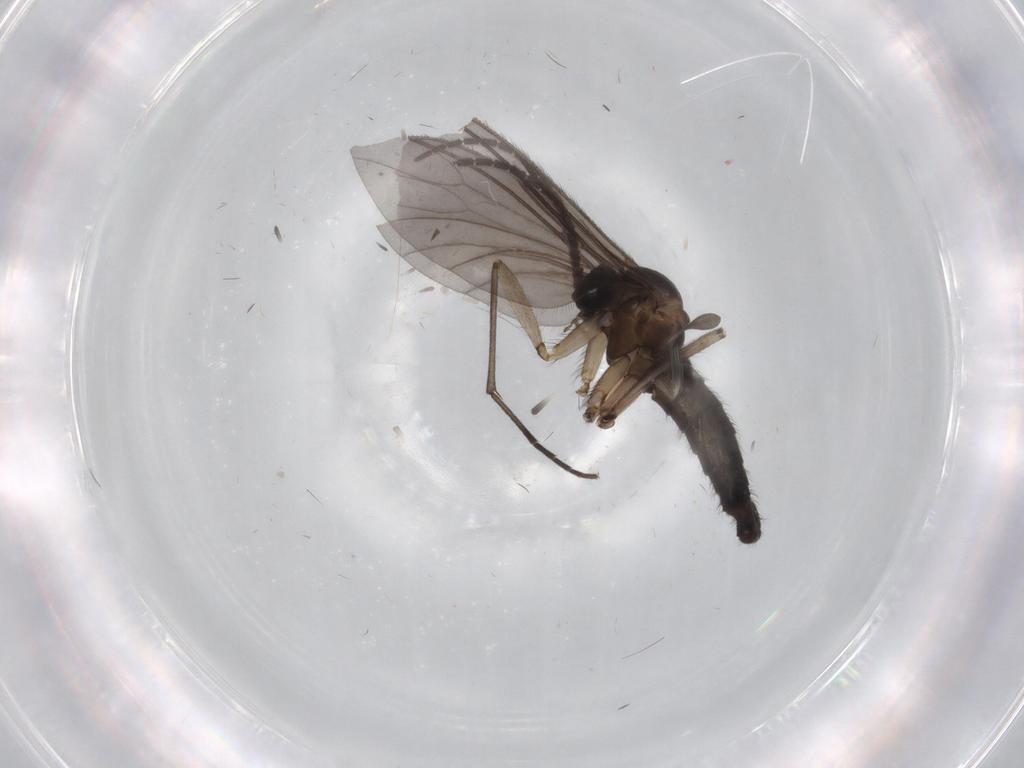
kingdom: Animalia
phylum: Arthropoda
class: Insecta
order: Diptera
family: Sciaridae
